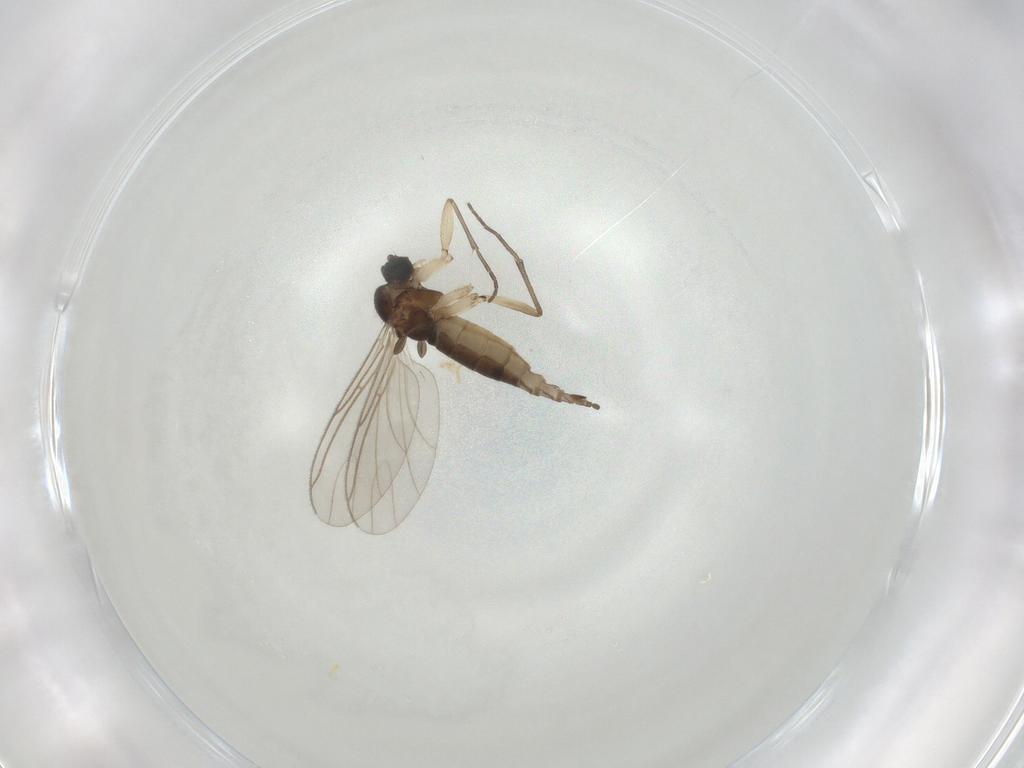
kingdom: Animalia
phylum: Arthropoda
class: Insecta
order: Diptera
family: Sciaridae
